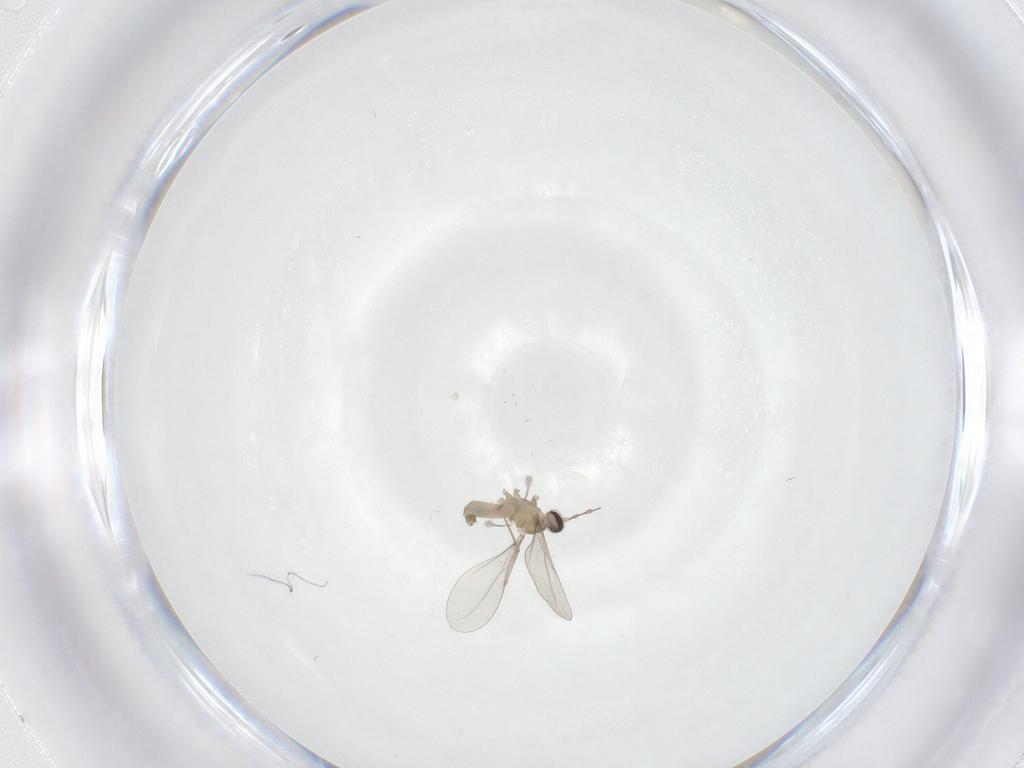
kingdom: Animalia
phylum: Arthropoda
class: Insecta
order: Diptera
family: Cecidomyiidae
